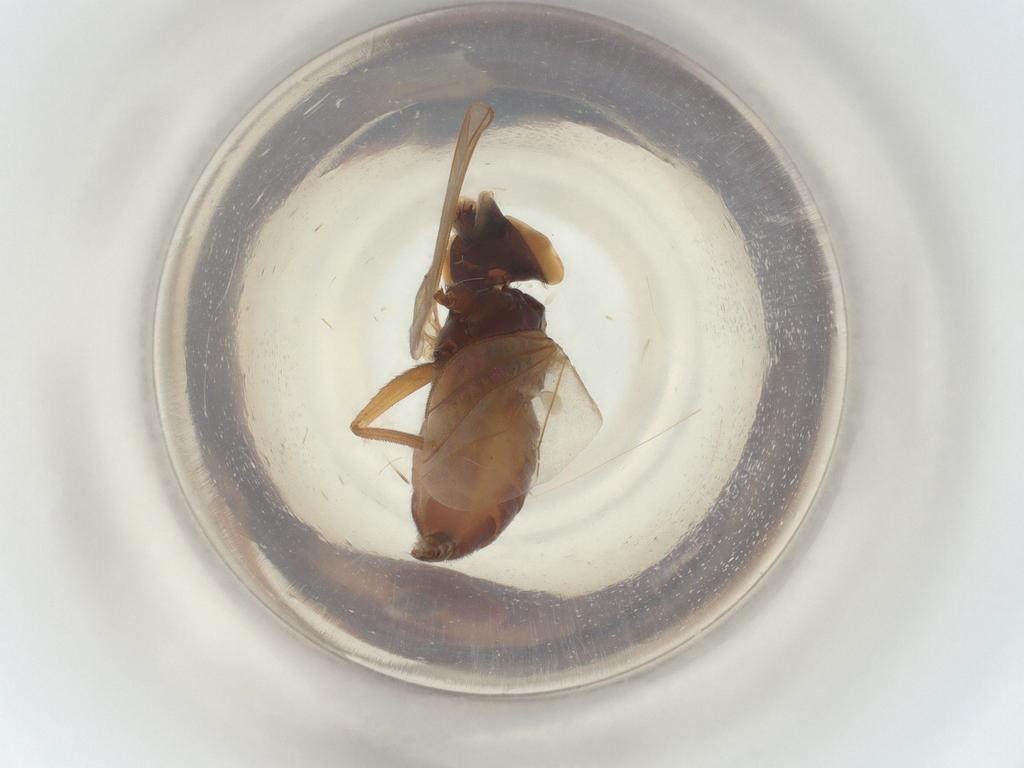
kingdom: Animalia
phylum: Arthropoda
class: Insecta
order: Diptera
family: Dolichopodidae
